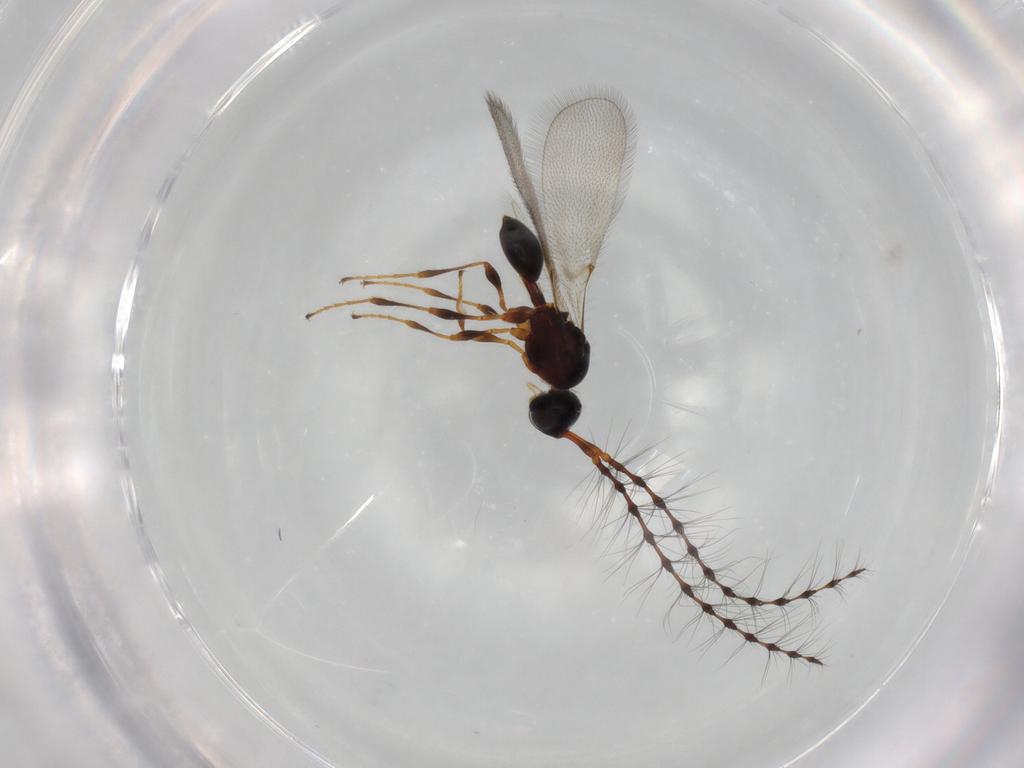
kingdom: Animalia
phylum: Arthropoda
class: Insecta
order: Hymenoptera
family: Diapriidae
